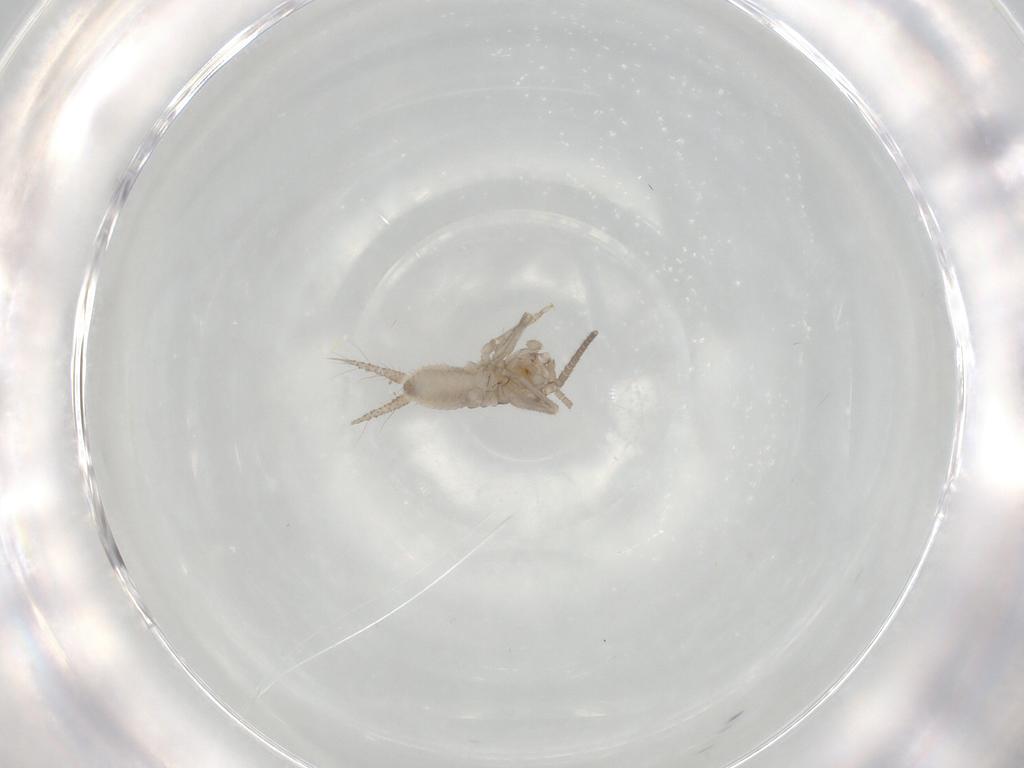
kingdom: Animalia
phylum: Arthropoda
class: Insecta
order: Orthoptera
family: Trigonidiidae
